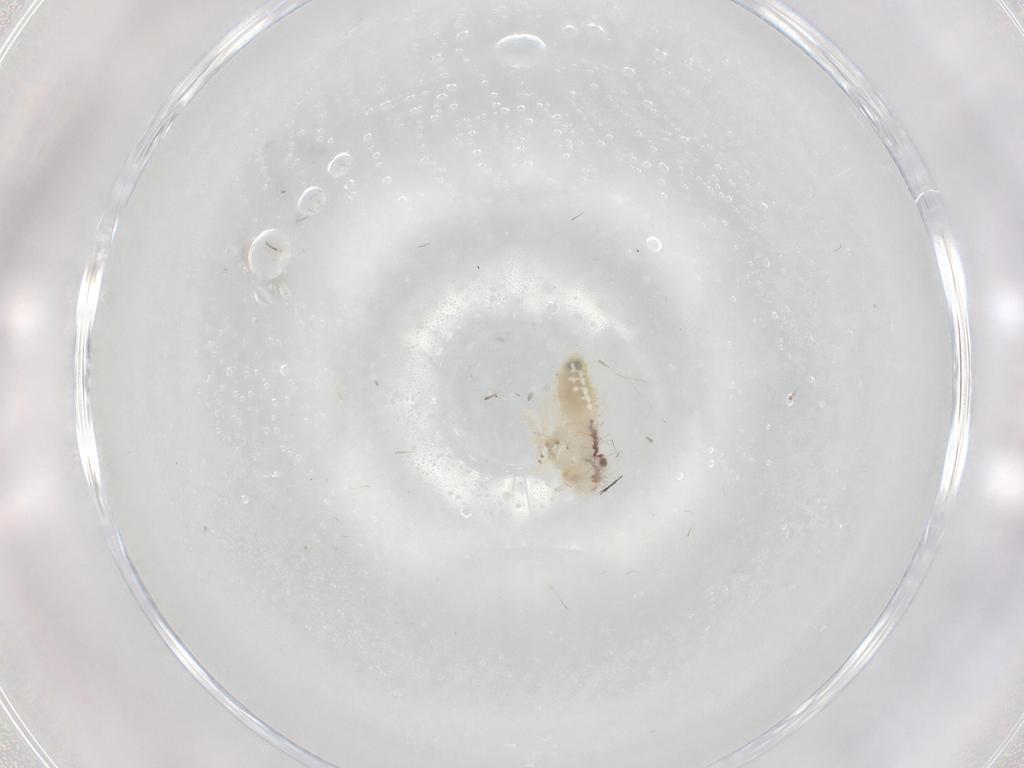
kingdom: Animalia
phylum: Arthropoda
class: Insecta
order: Psocodea
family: Pseudocaeciliidae
